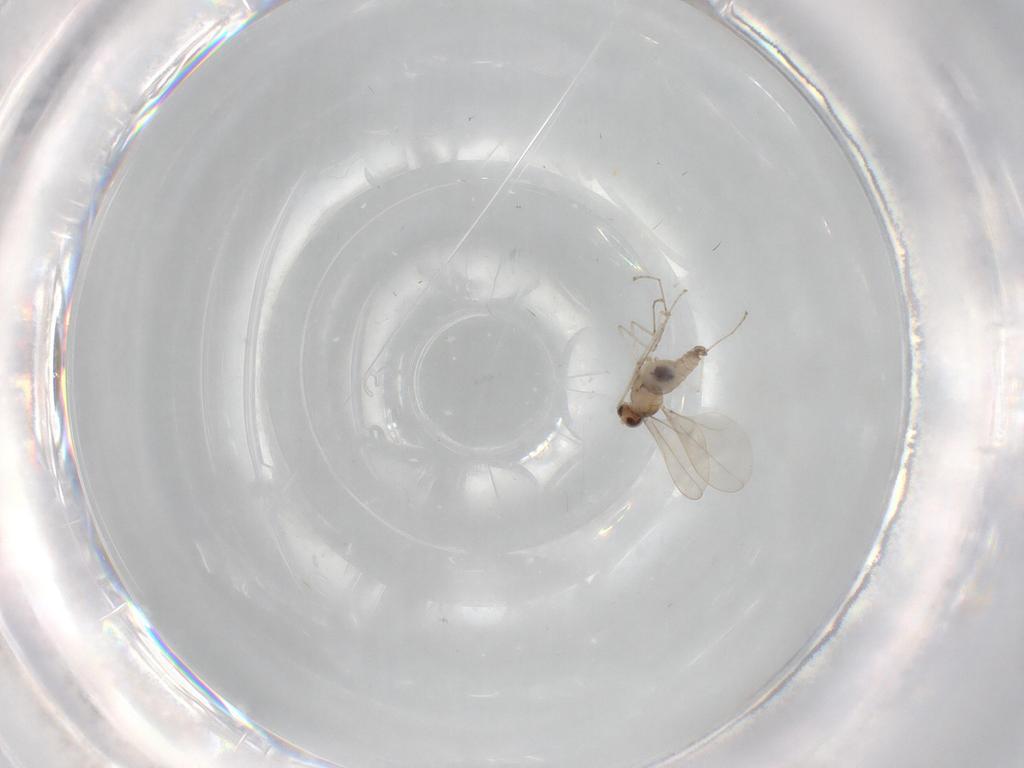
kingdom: Animalia
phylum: Arthropoda
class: Insecta
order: Diptera
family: Cecidomyiidae
